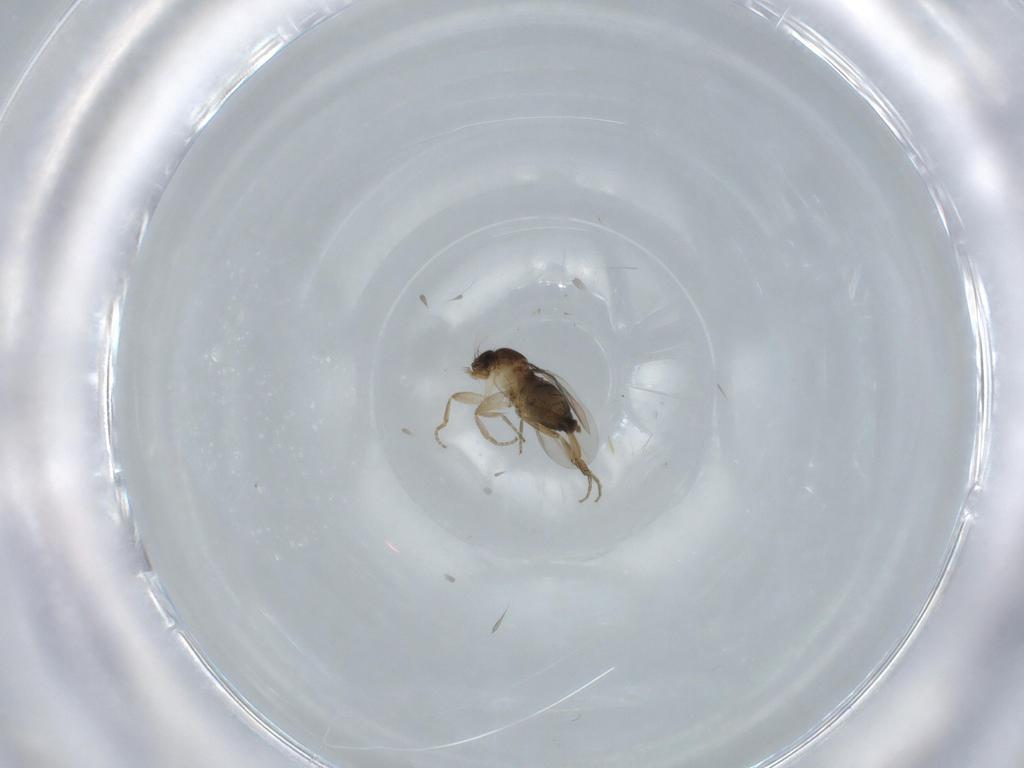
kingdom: Animalia
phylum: Arthropoda
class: Insecta
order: Diptera
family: Phoridae
